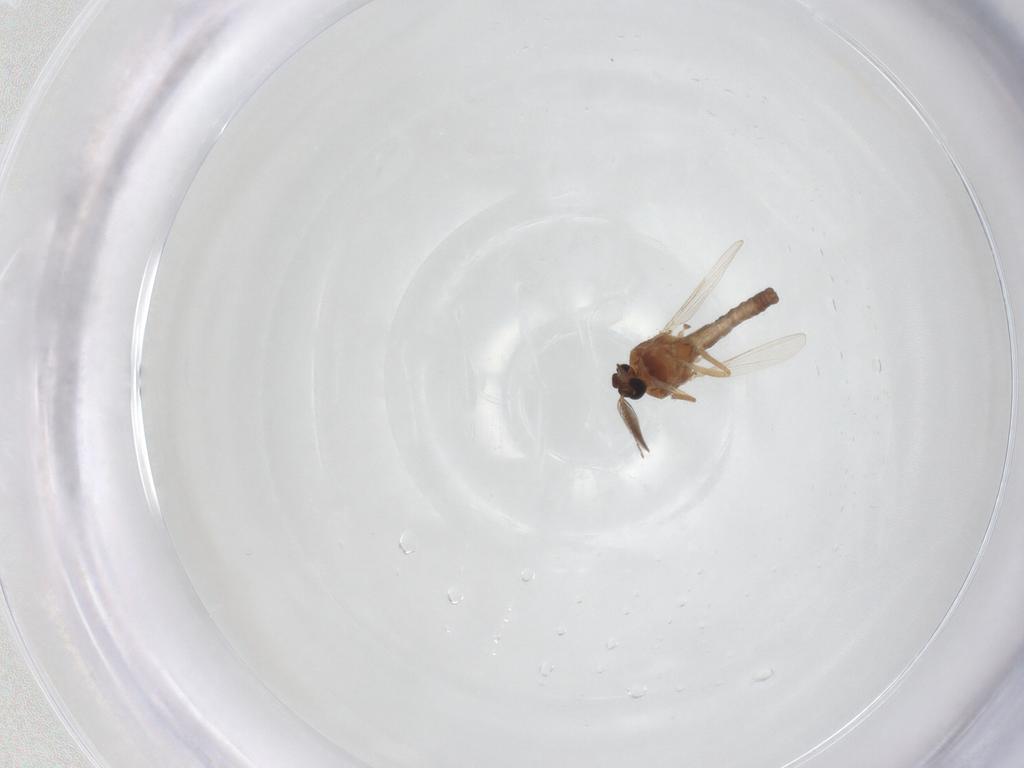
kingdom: Animalia
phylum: Arthropoda
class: Insecta
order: Diptera
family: Ceratopogonidae
